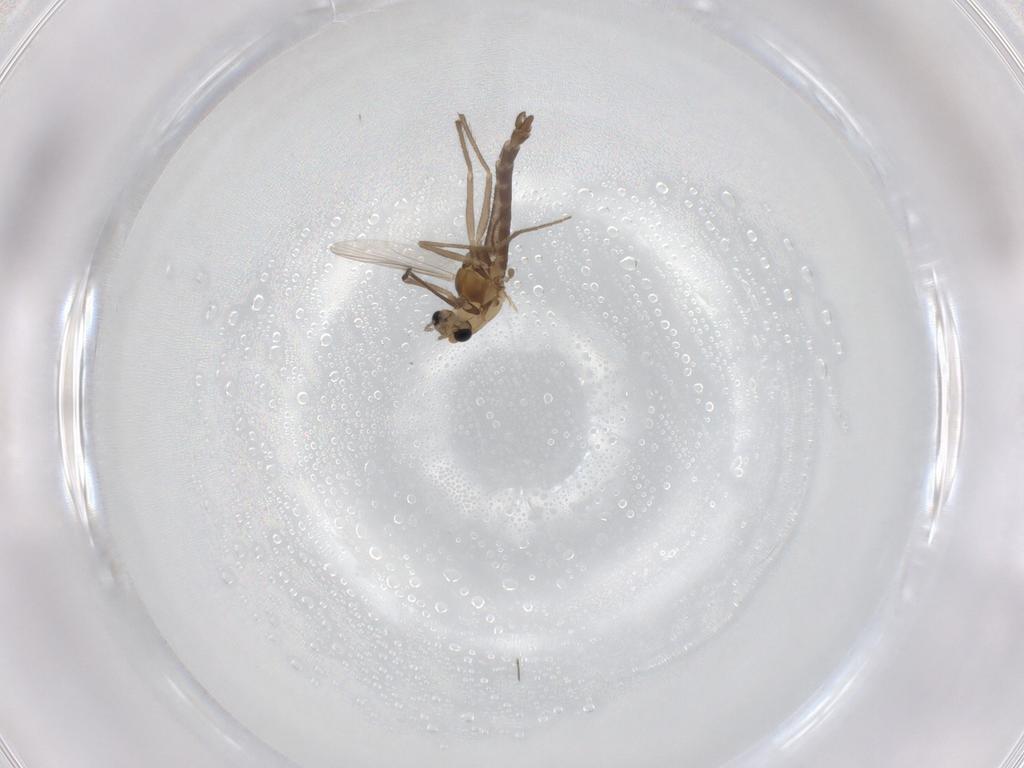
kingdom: Animalia
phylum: Arthropoda
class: Insecta
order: Diptera
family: Chironomidae
